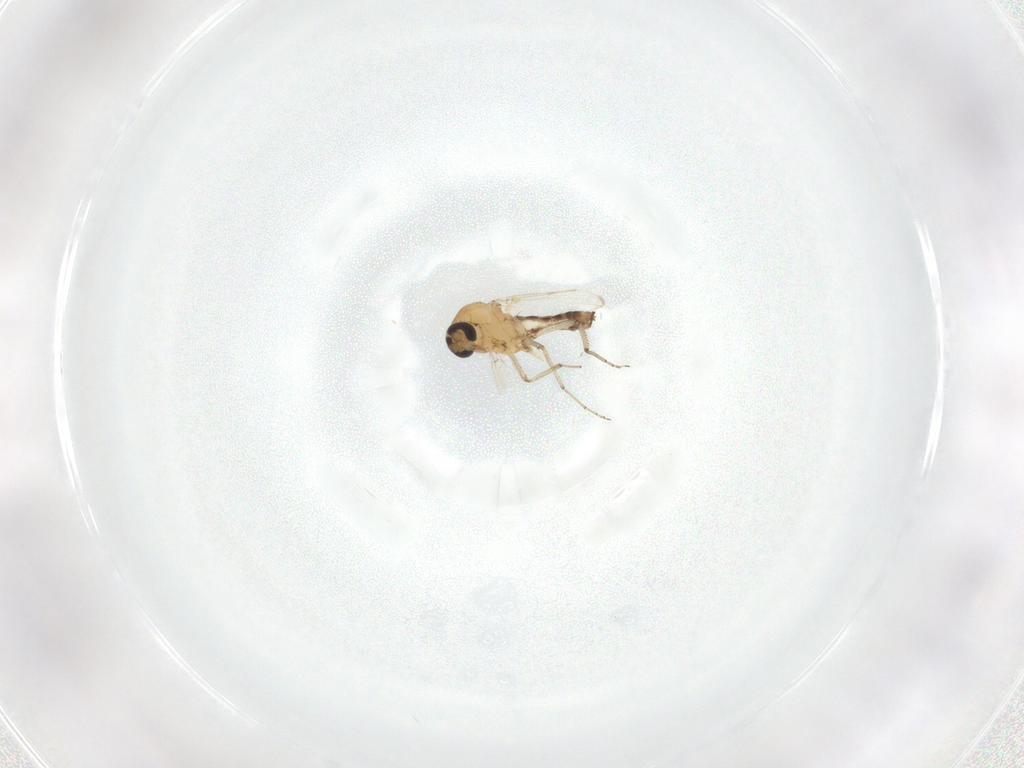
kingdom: Animalia
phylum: Arthropoda
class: Insecta
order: Diptera
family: Ceratopogonidae
